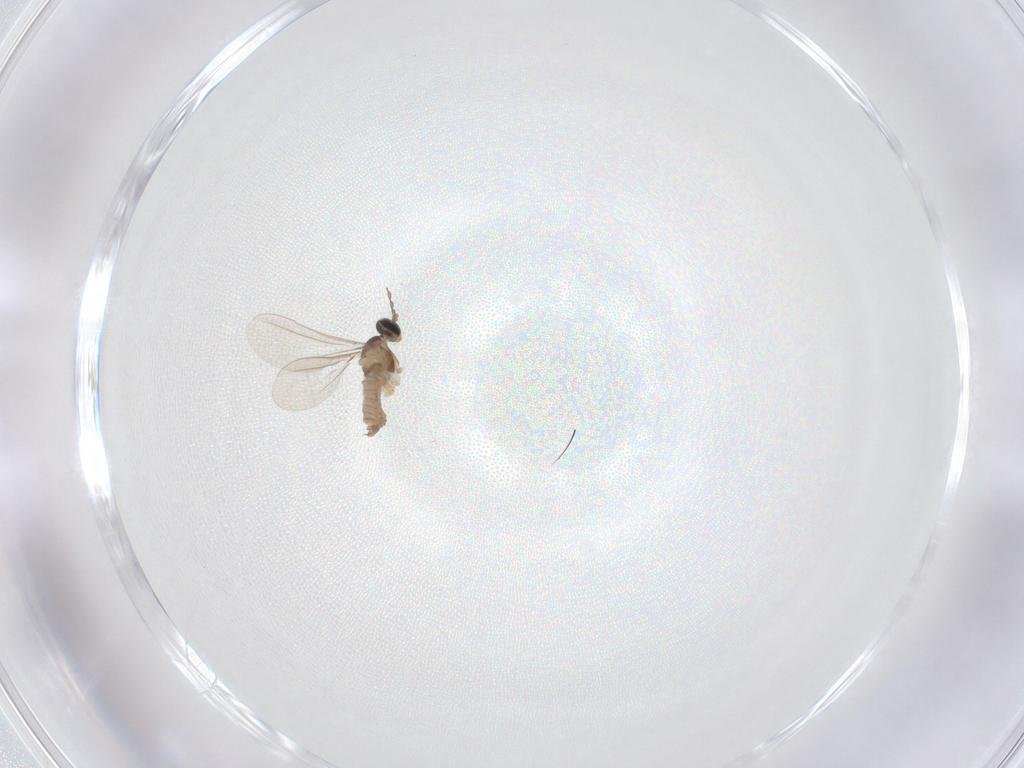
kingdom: Animalia
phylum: Arthropoda
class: Insecta
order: Diptera
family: Cecidomyiidae
